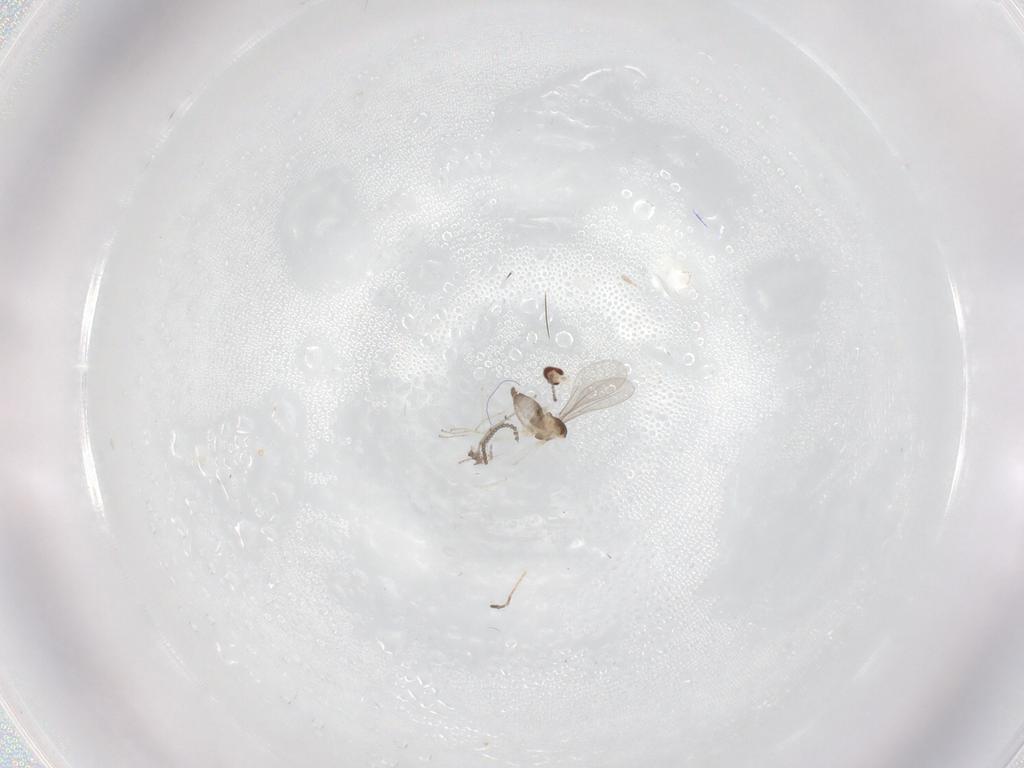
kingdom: Animalia
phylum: Arthropoda
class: Insecta
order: Diptera
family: Cecidomyiidae
